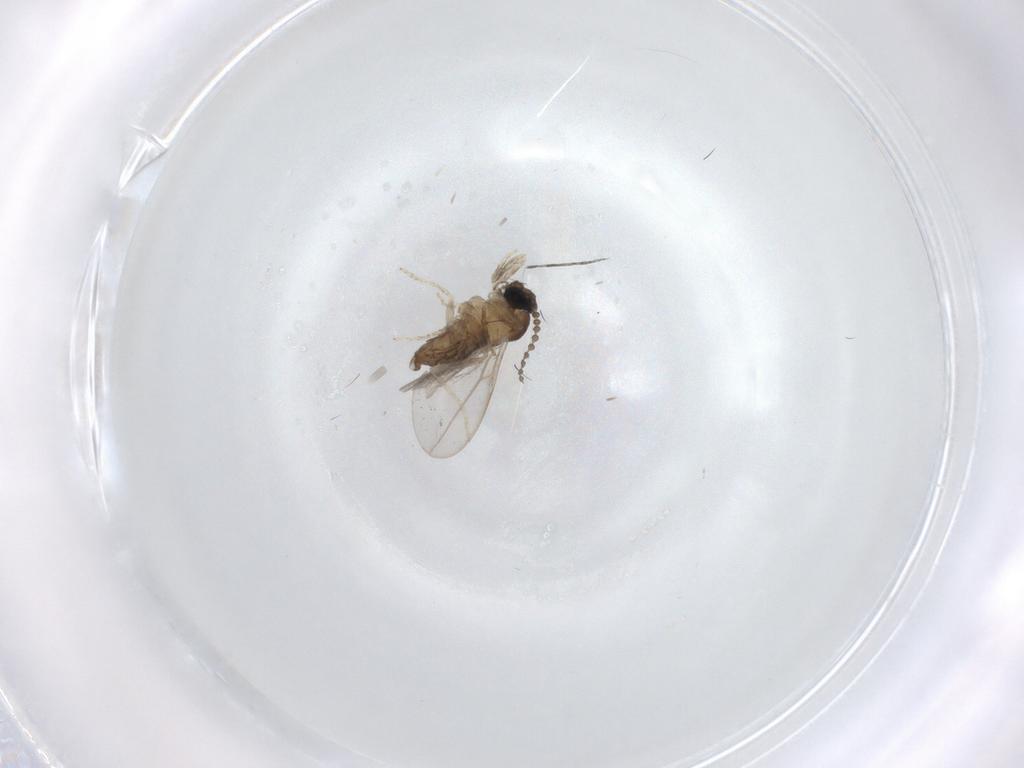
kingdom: Animalia
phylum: Arthropoda
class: Insecta
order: Diptera
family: Cecidomyiidae
